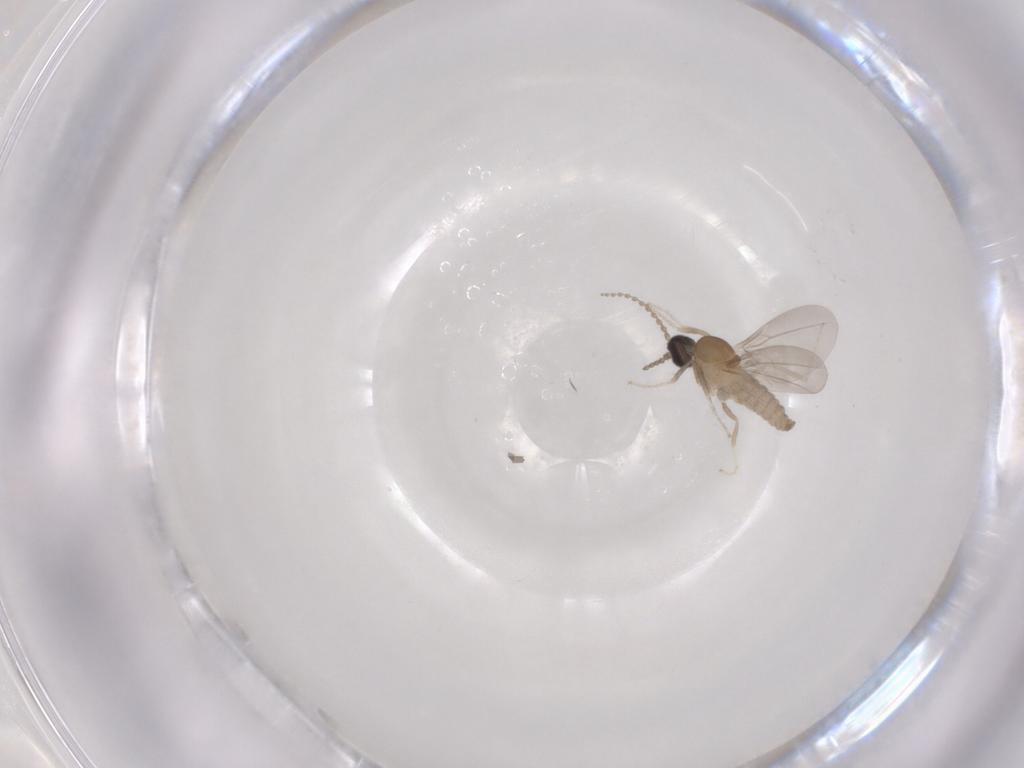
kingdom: Animalia
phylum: Arthropoda
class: Insecta
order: Diptera
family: Cecidomyiidae
